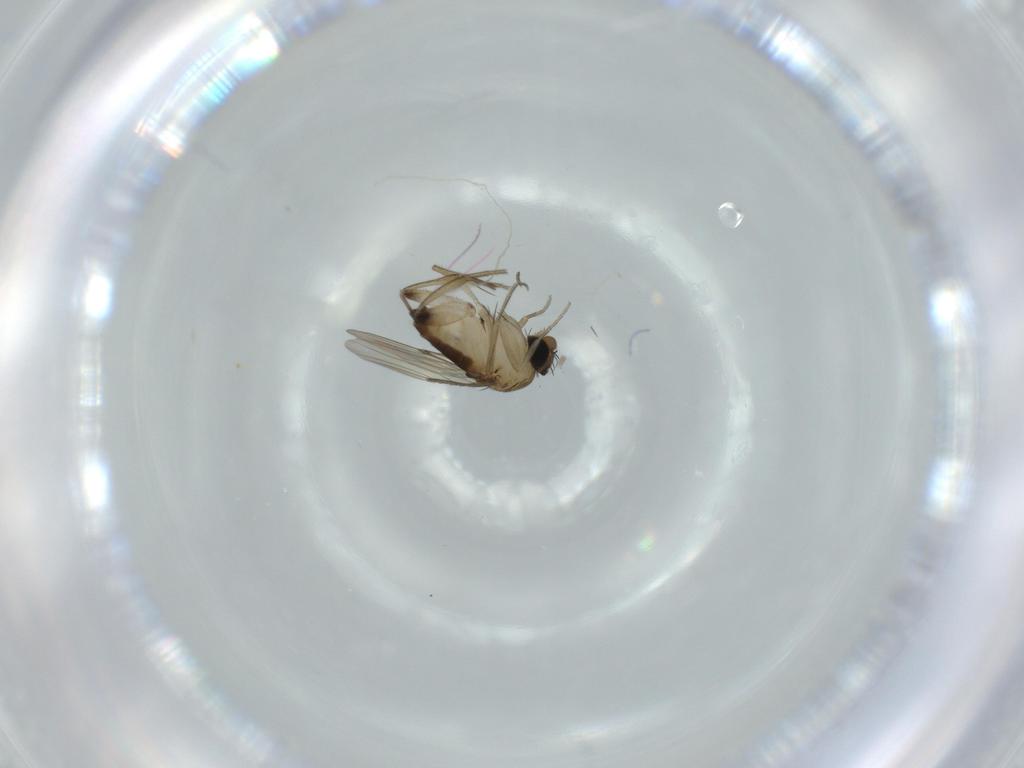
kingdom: Animalia
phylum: Arthropoda
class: Insecta
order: Diptera
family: Phoridae
